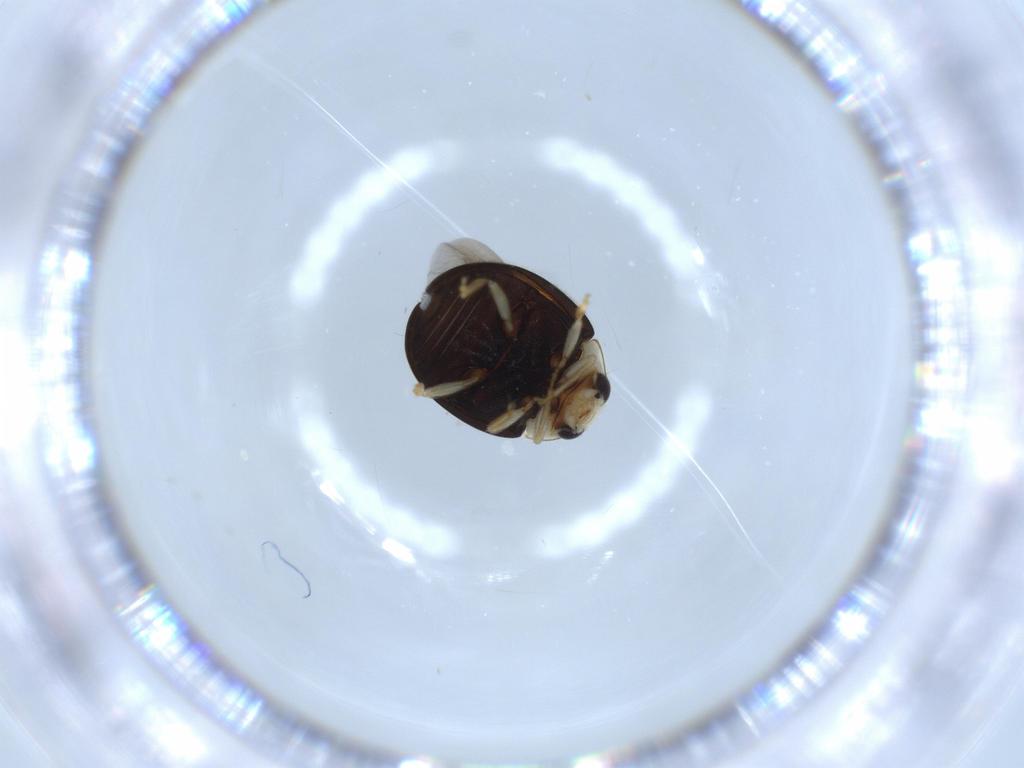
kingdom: Animalia
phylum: Arthropoda
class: Insecta
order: Coleoptera
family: Coccinellidae
